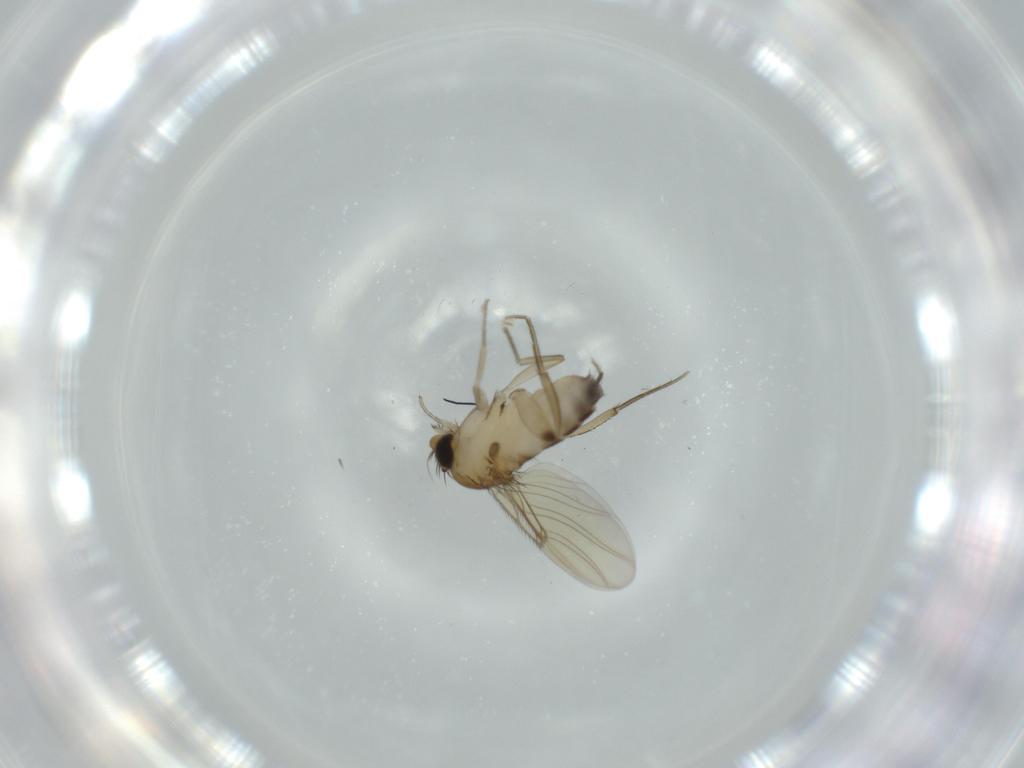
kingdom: Animalia
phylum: Arthropoda
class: Insecta
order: Diptera
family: Phoridae
